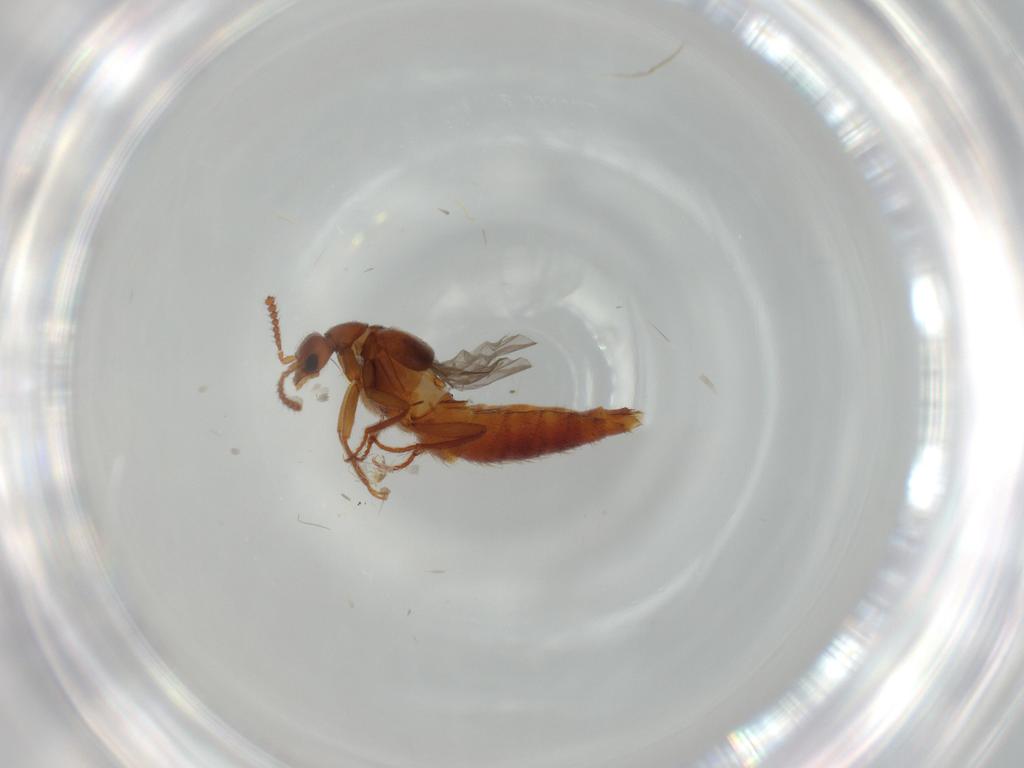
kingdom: Animalia
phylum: Arthropoda
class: Insecta
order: Coleoptera
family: Staphylinidae
